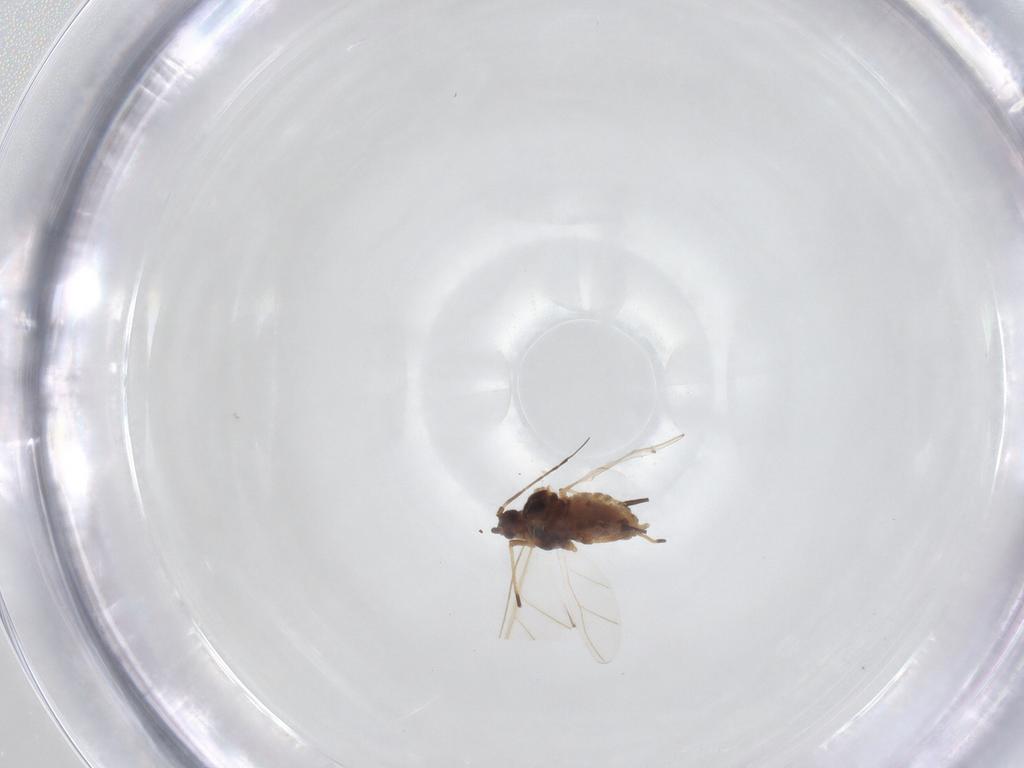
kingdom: Animalia
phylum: Arthropoda
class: Insecta
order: Hemiptera
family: Aphididae
